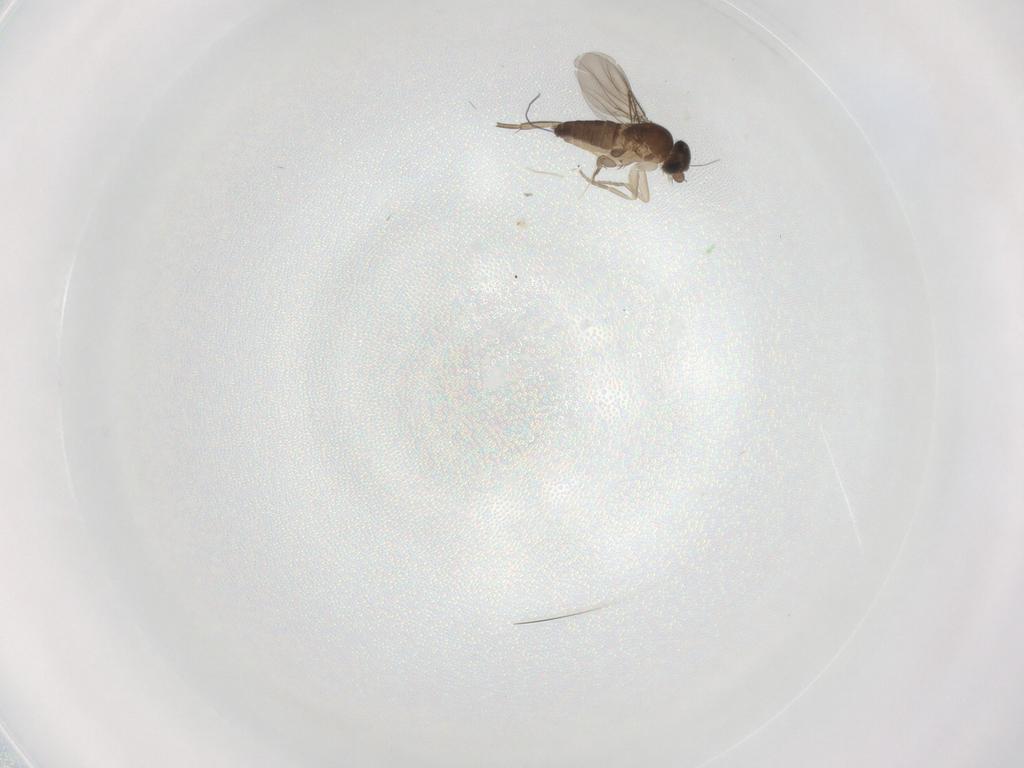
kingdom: Animalia
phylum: Arthropoda
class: Insecta
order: Diptera
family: Phoridae
